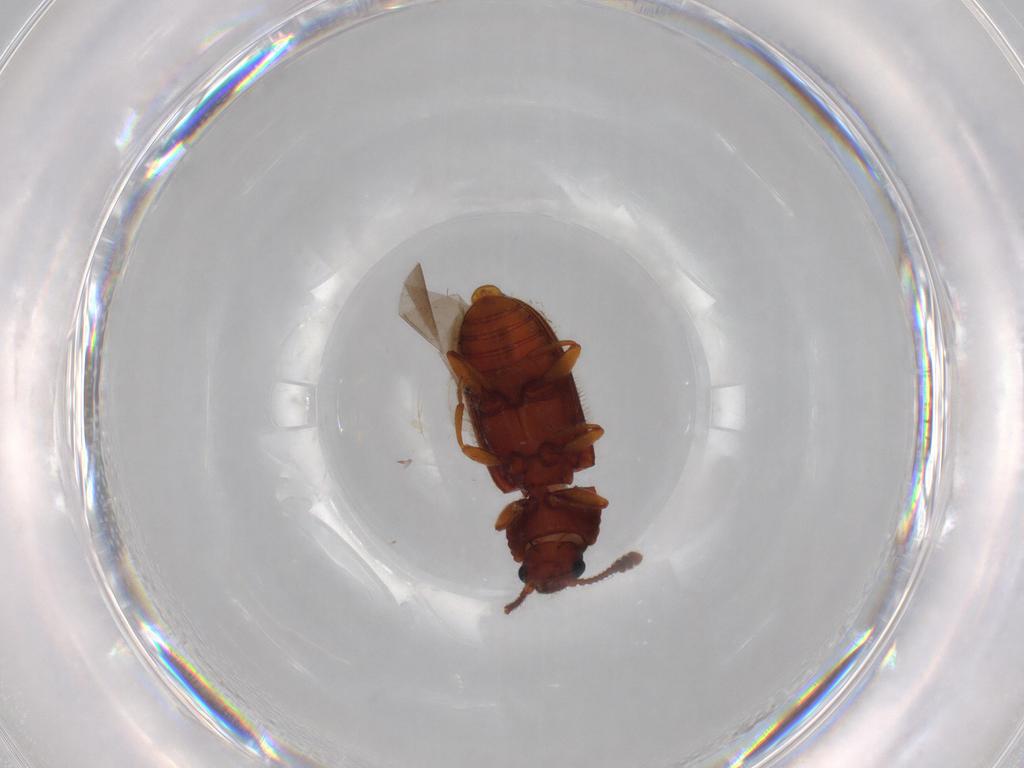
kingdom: Animalia
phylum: Arthropoda
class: Insecta
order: Coleoptera
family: Erotylidae
